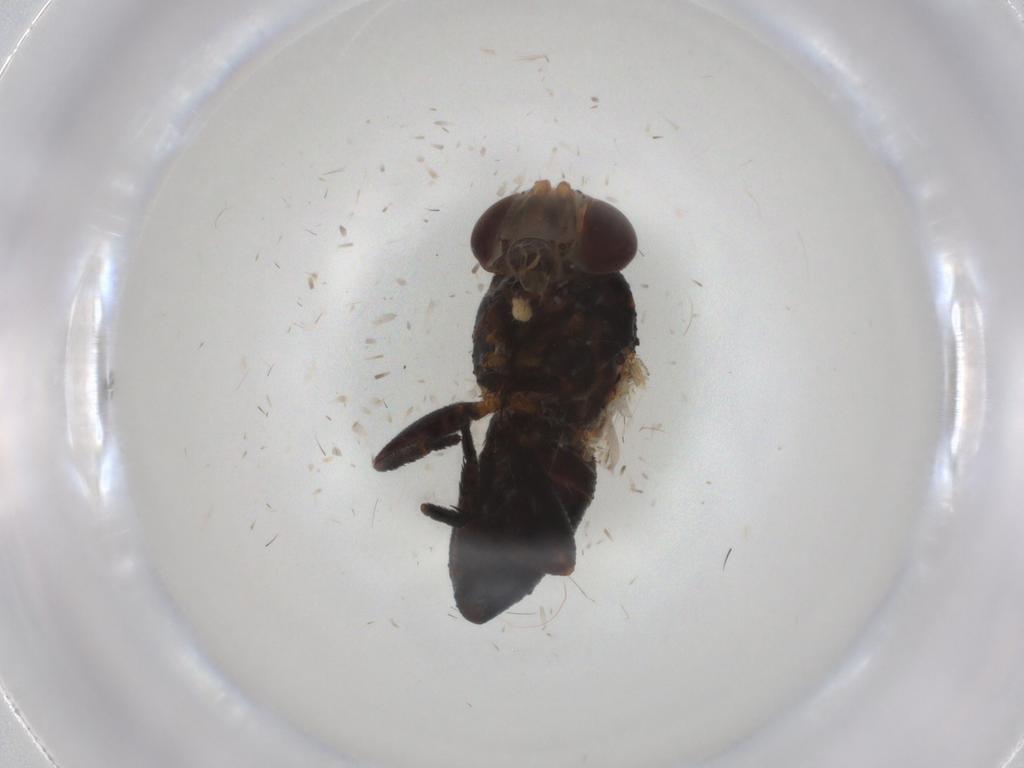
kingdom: Animalia
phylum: Arthropoda
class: Insecta
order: Diptera
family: Tachinidae
